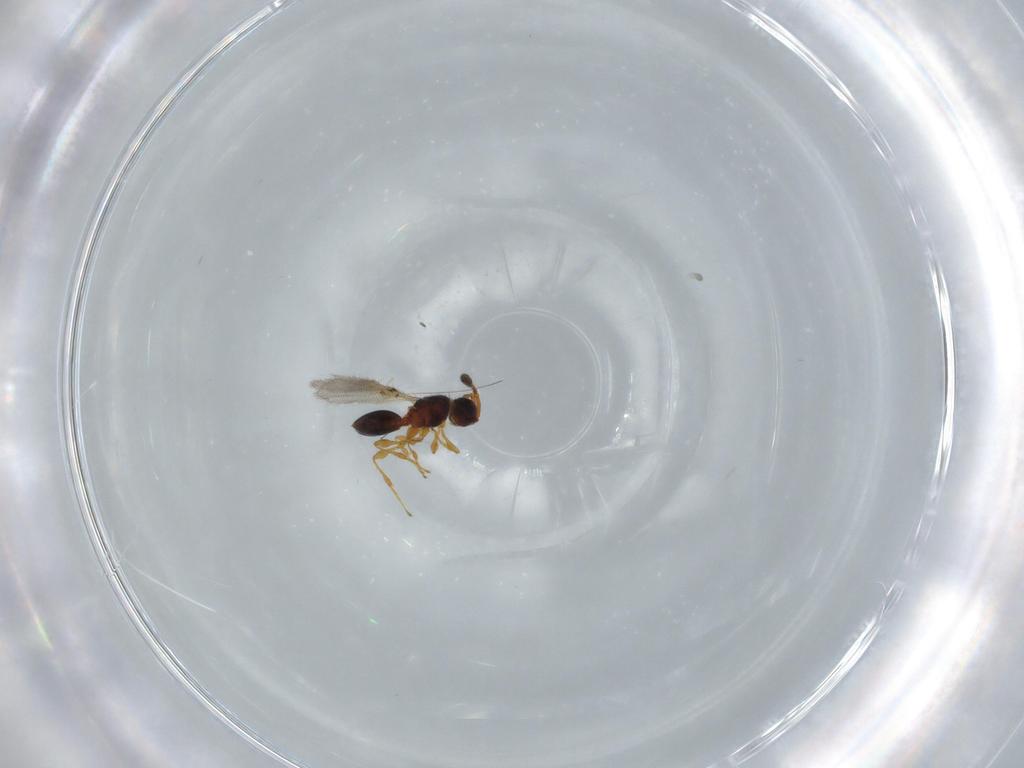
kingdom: Animalia
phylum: Arthropoda
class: Insecta
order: Hymenoptera
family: Diapriidae
